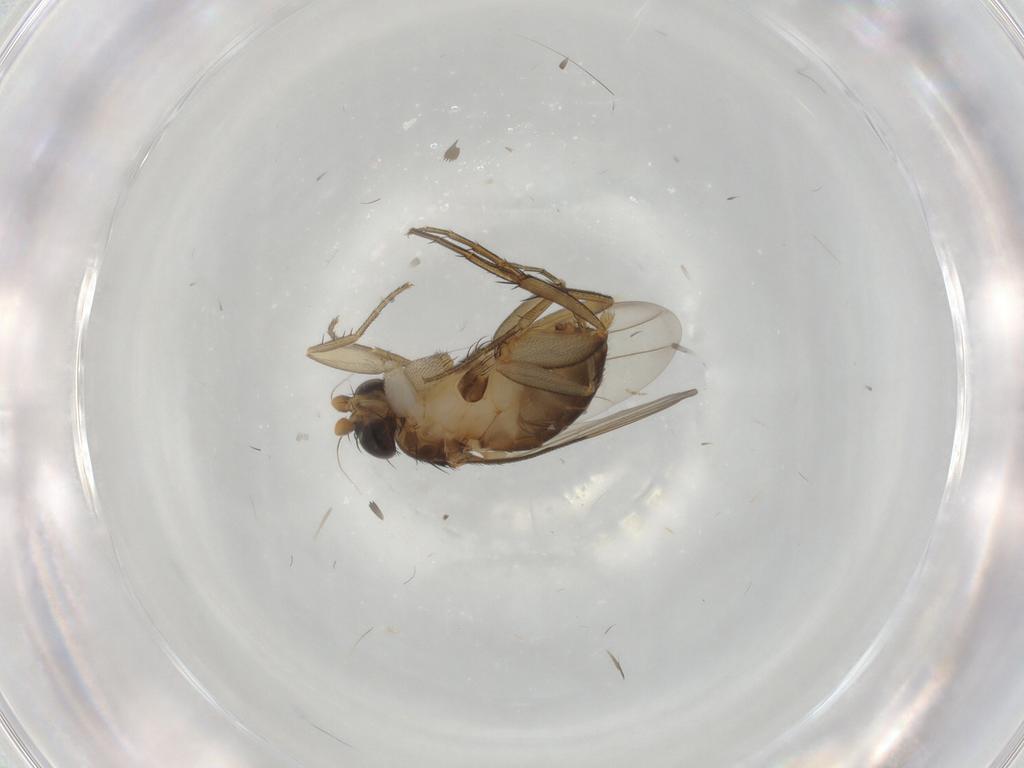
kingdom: Animalia
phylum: Arthropoda
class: Insecta
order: Diptera
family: Phoridae
